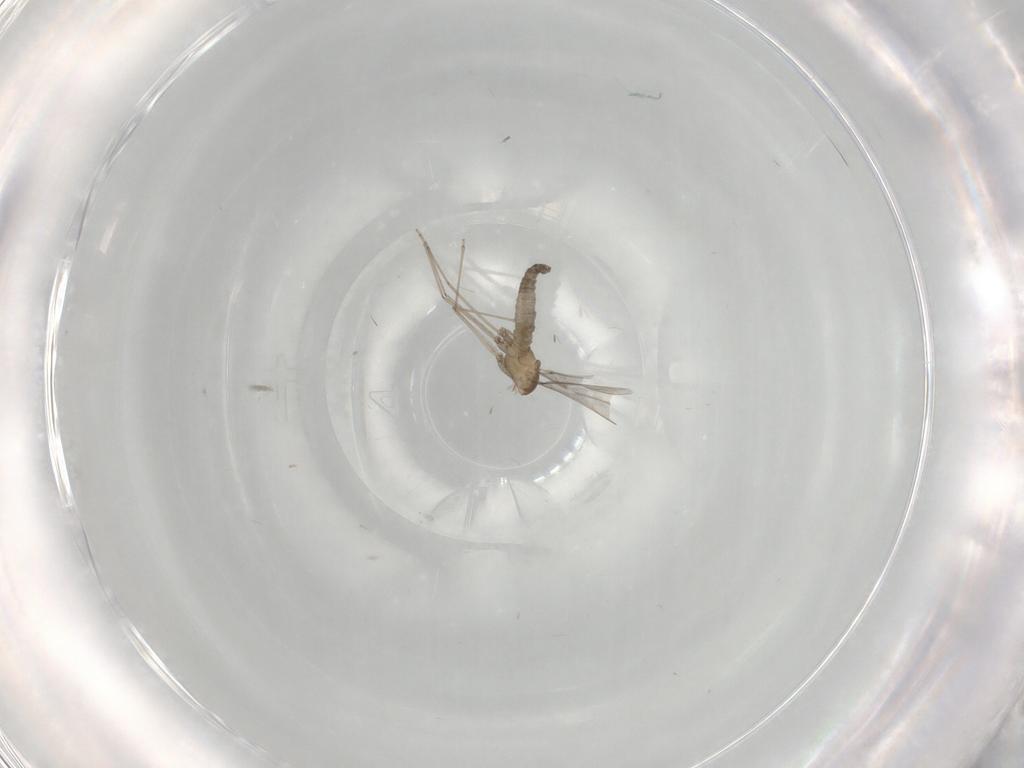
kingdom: Animalia
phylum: Arthropoda
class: Insecta
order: Diptera
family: Cecidomyiidae
